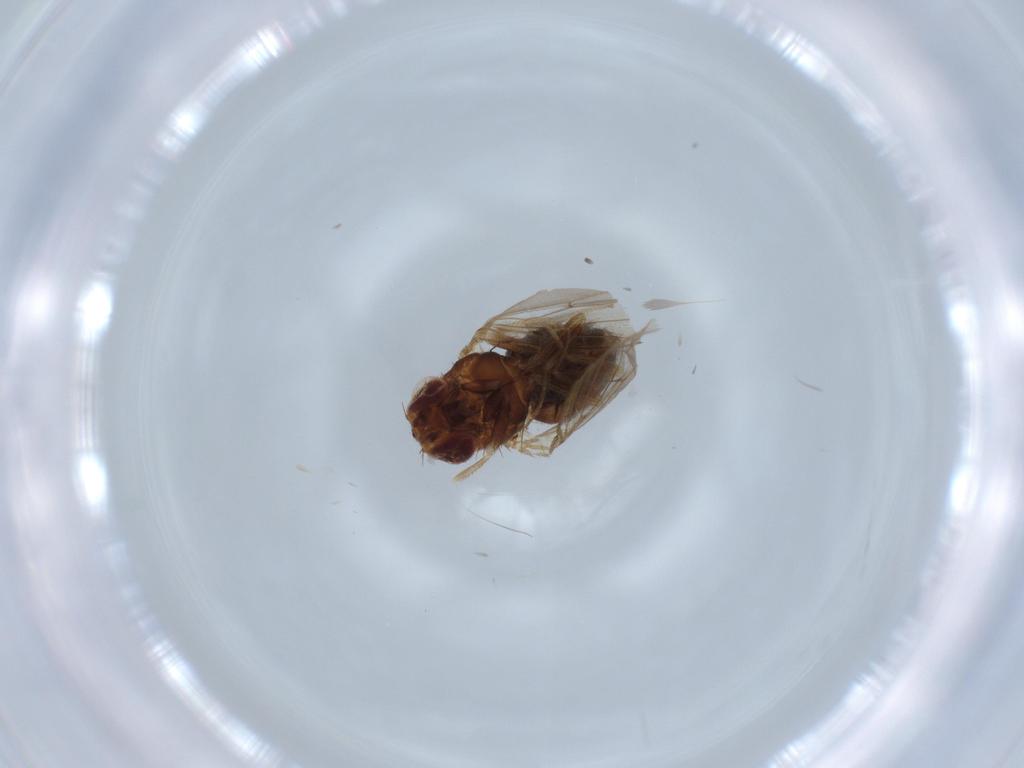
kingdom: Animalia
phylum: Arthropoda
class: Insecta
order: Diptera
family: Drosophilidae
